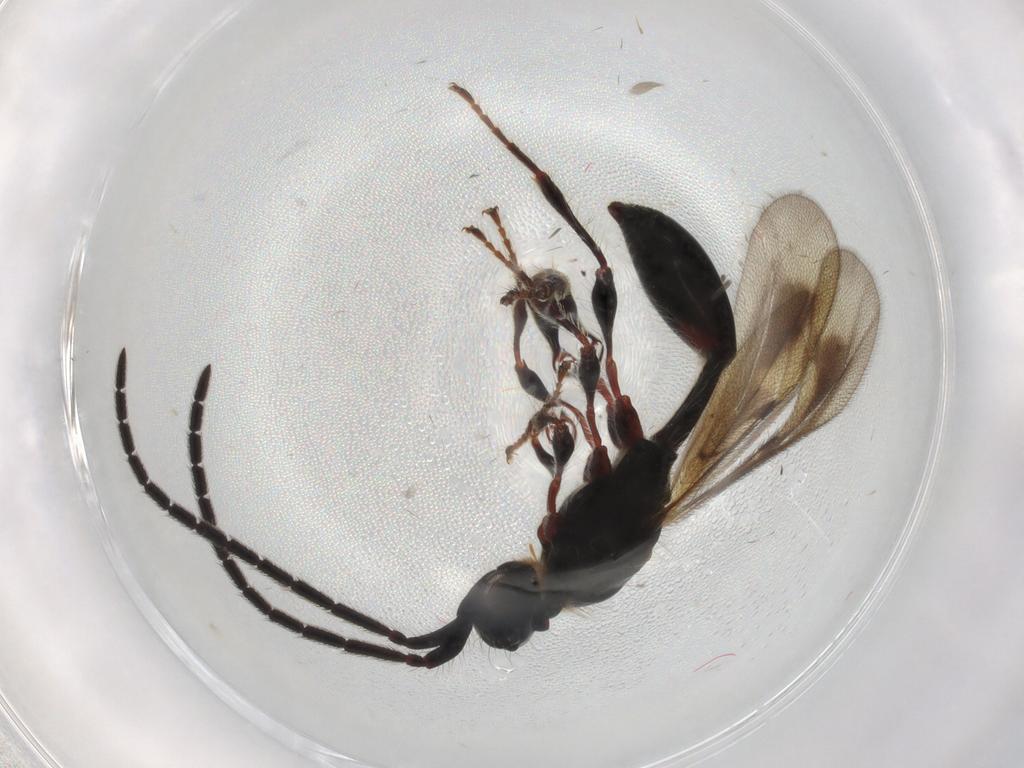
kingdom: Animalia
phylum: Arthropoda
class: Insecta
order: Hymenoptera
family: Diapriidae
